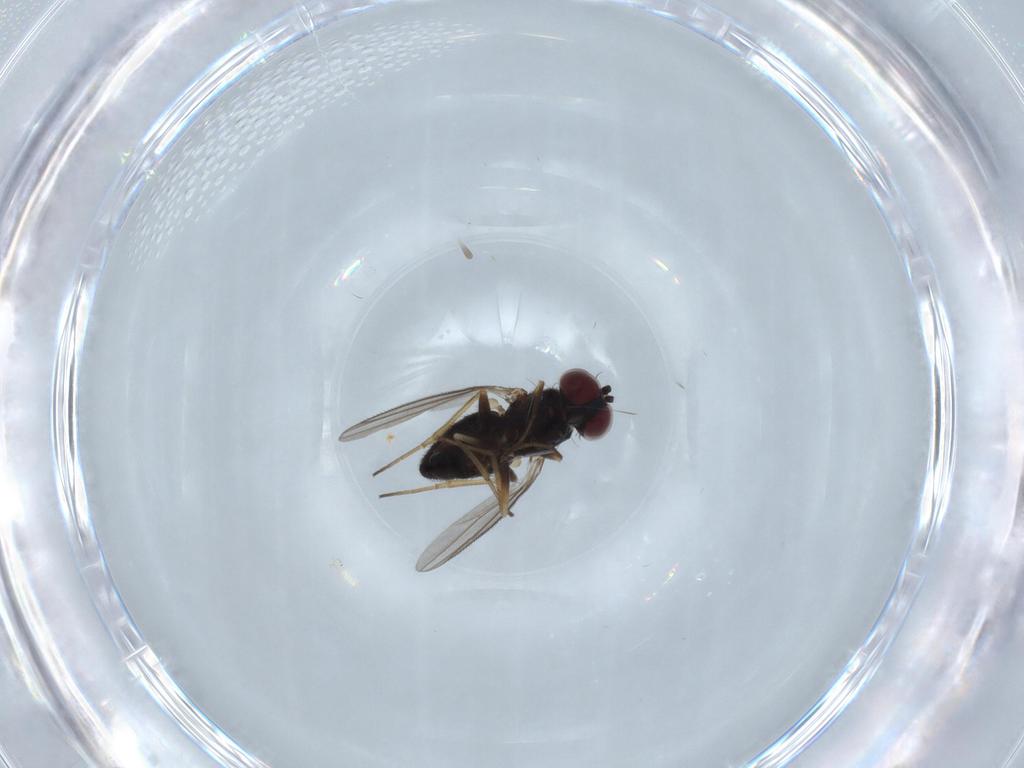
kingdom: Animalia
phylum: Arthropoda
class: Insecta
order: Diptera
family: Dolichopodidae
